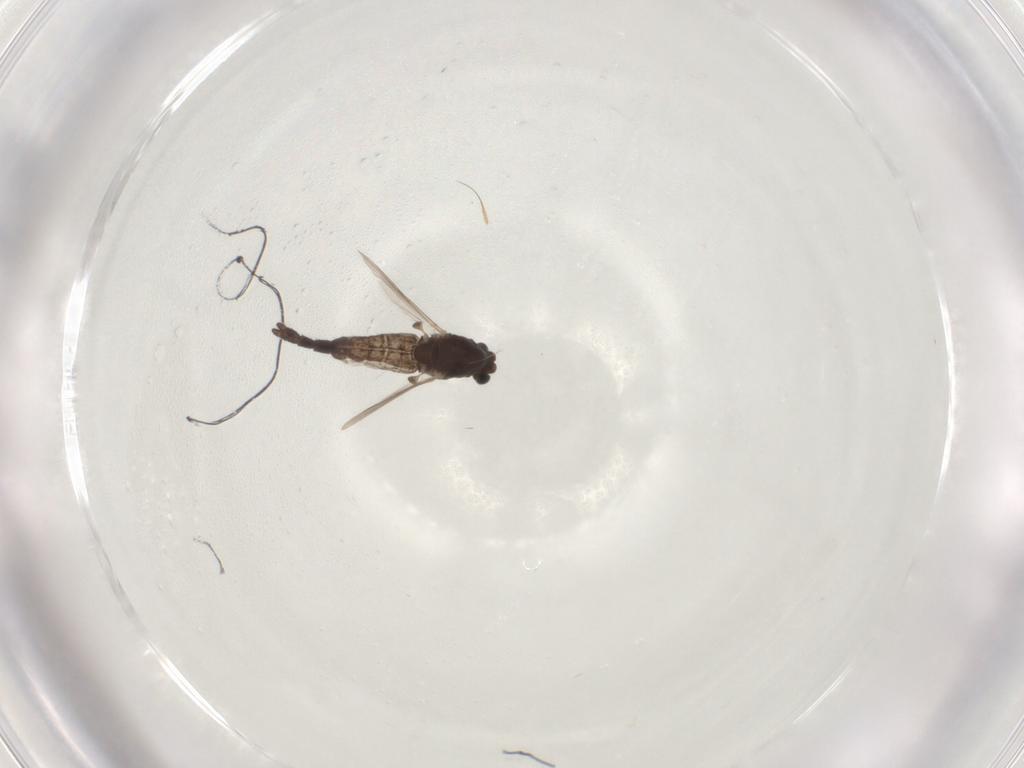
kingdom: Animalia
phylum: Arthropoda
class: Insecta
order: Diptera
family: Chironomidae
